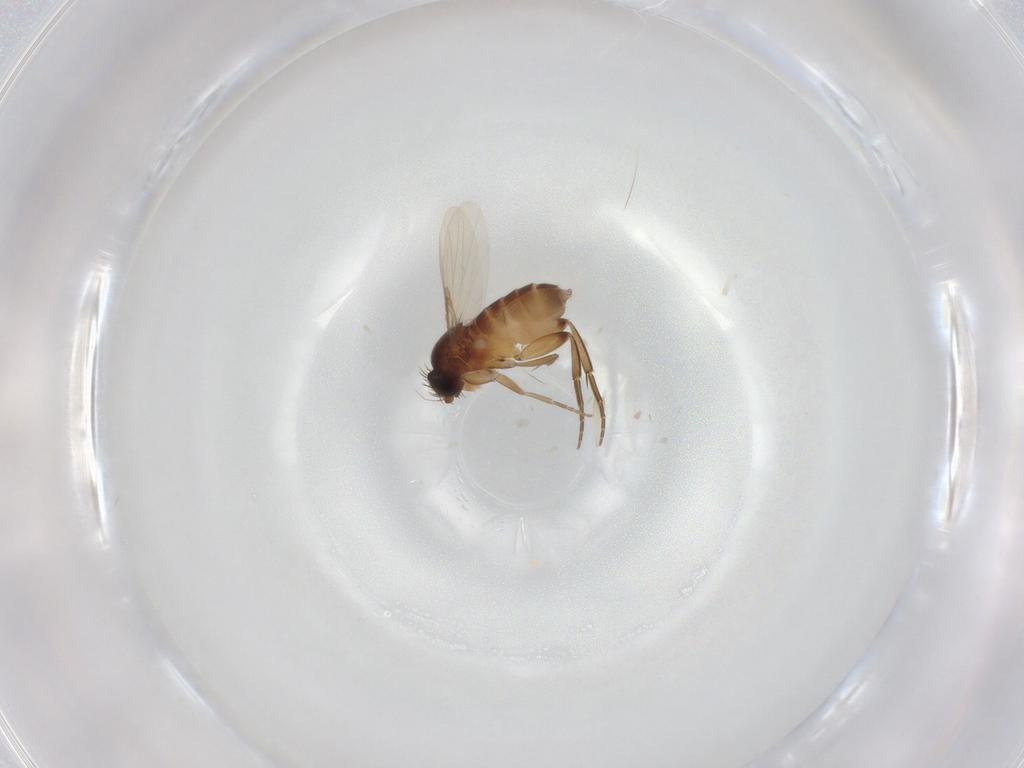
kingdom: Animalia
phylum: Arthropoda
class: Insecta
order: Diptera
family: Phoridae
